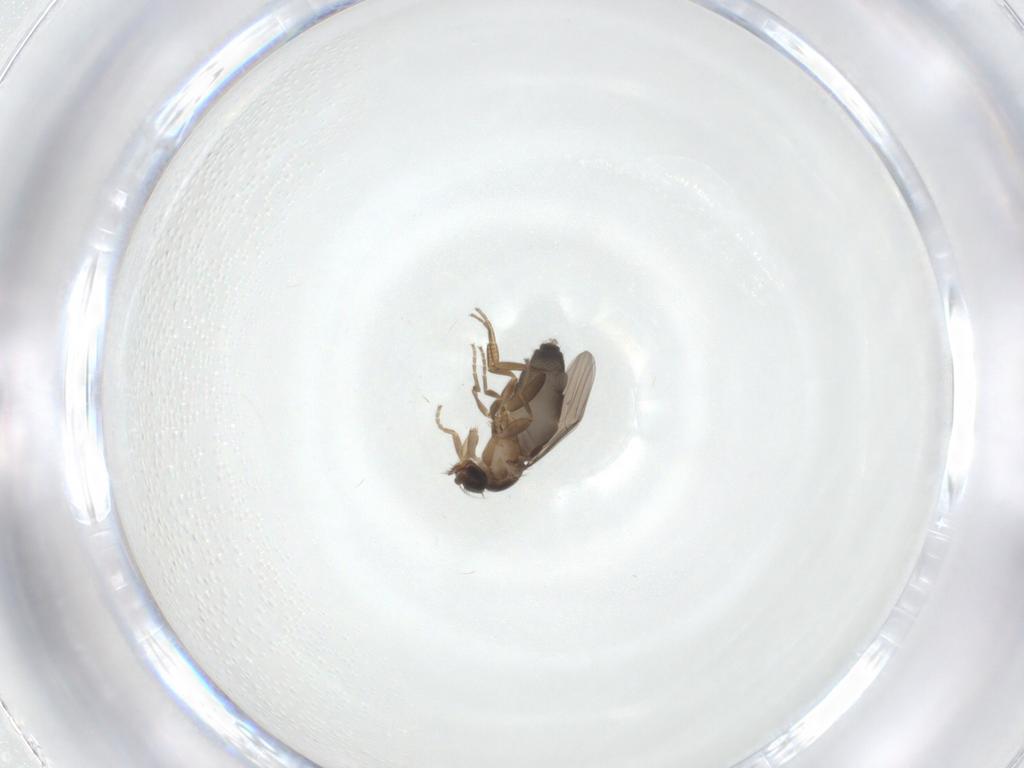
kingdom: Animalia
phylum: Arthropoda
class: Insecta
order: Diptera
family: Phoridae
